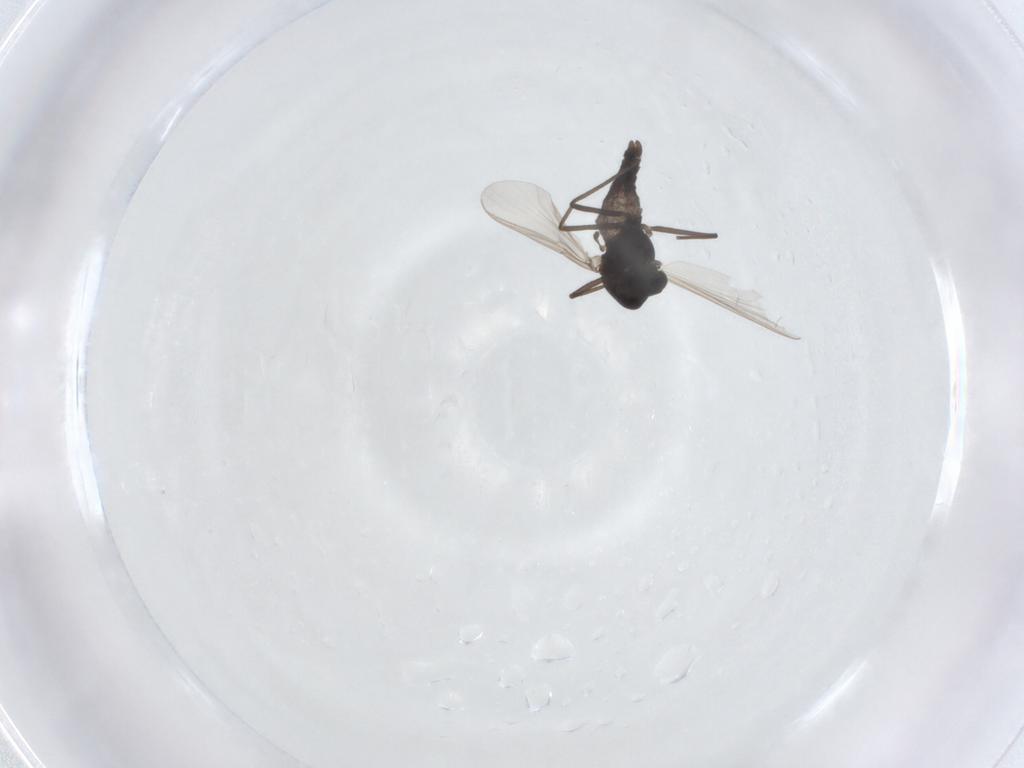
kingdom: Animalia
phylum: Arthropoda
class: Insecta
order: Diptera
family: Chironomidae
